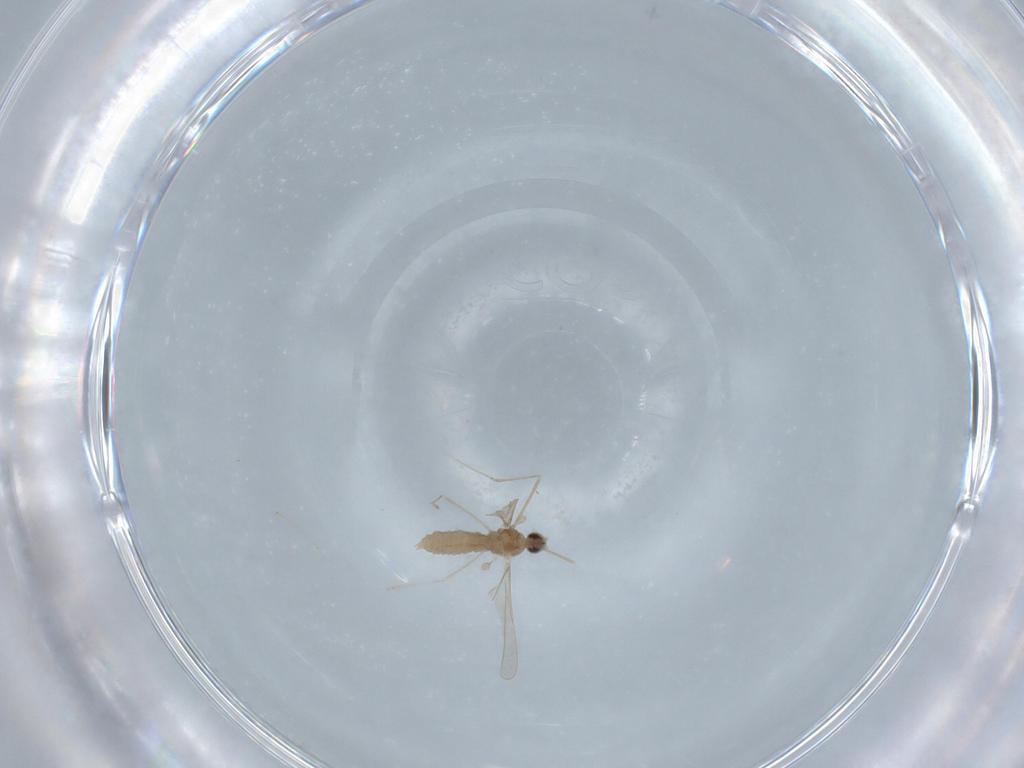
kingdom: Animalia
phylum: Arthropoda
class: Insecta
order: Diptera
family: Cecidomyiidae
